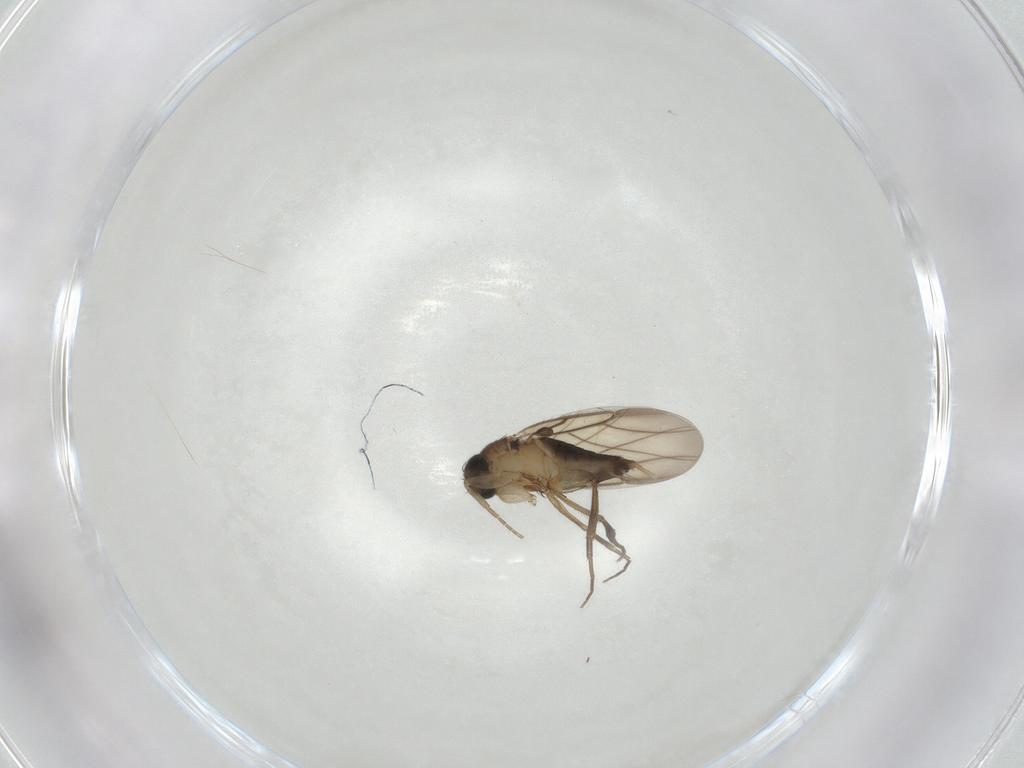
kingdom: Animalia
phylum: Arthropoda
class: Insecta
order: Diptera
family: Phoridae
